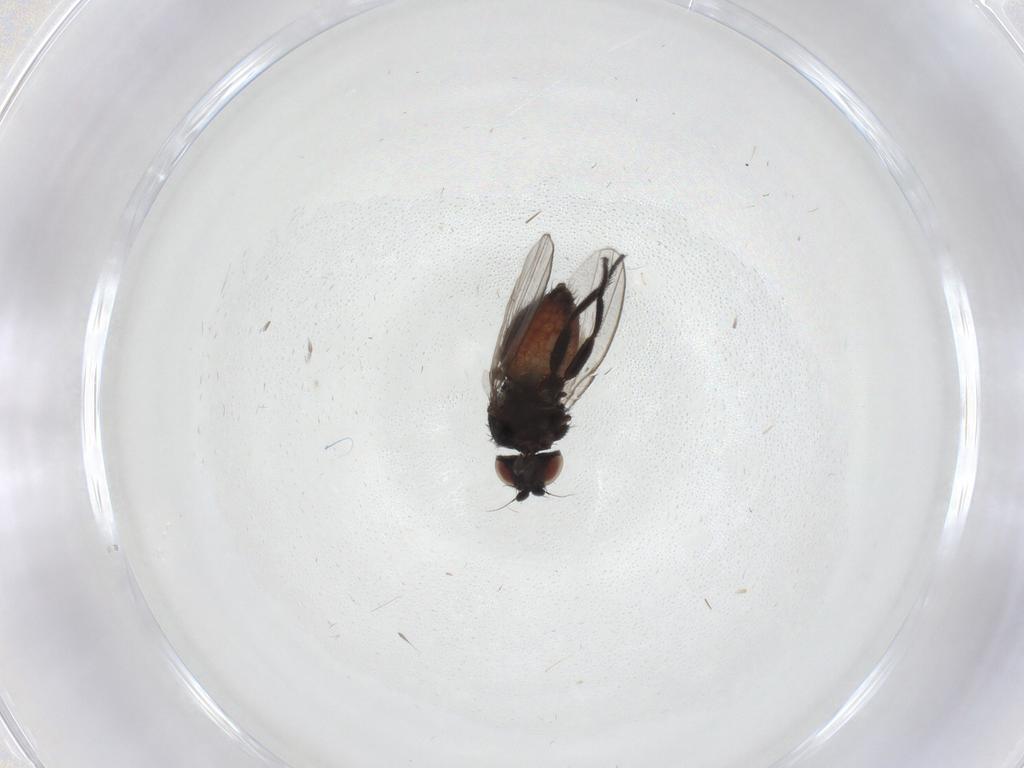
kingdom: Animalia
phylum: Arthropoda
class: Insecta
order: Diptera
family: Milichiidae
